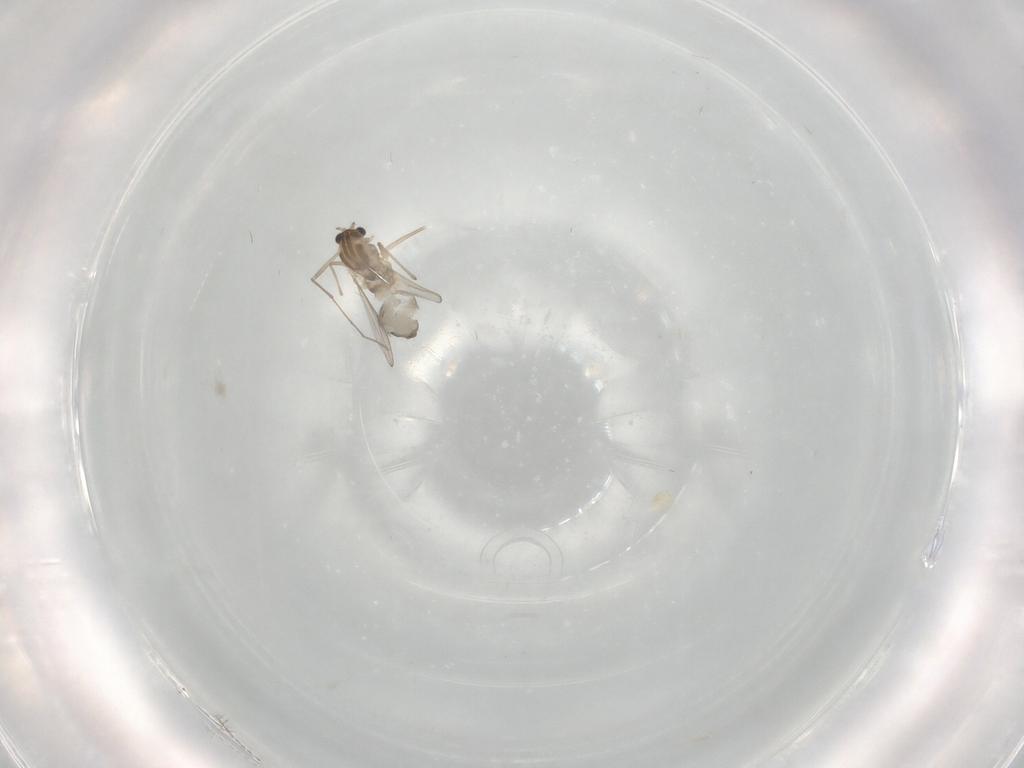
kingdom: Animalia
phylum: Arthropoda
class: Insecta
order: Diptera
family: Chironomidae
